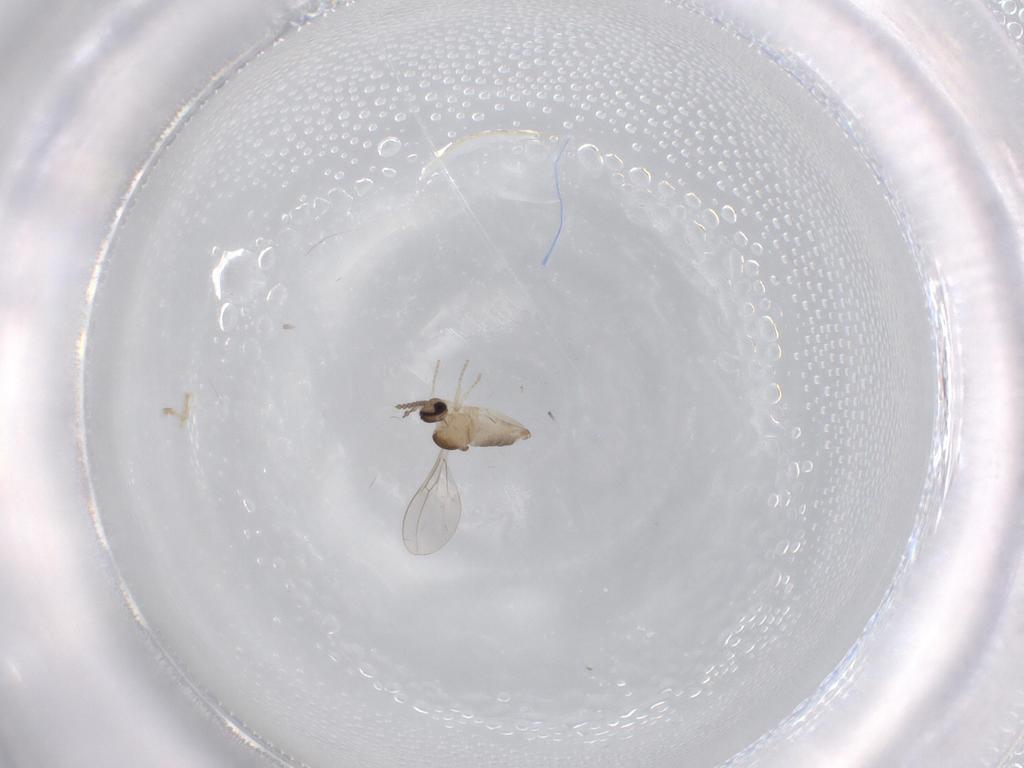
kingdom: Animalia
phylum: Arthropoda
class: Insecta
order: Diptera
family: Cecidomyiidae
